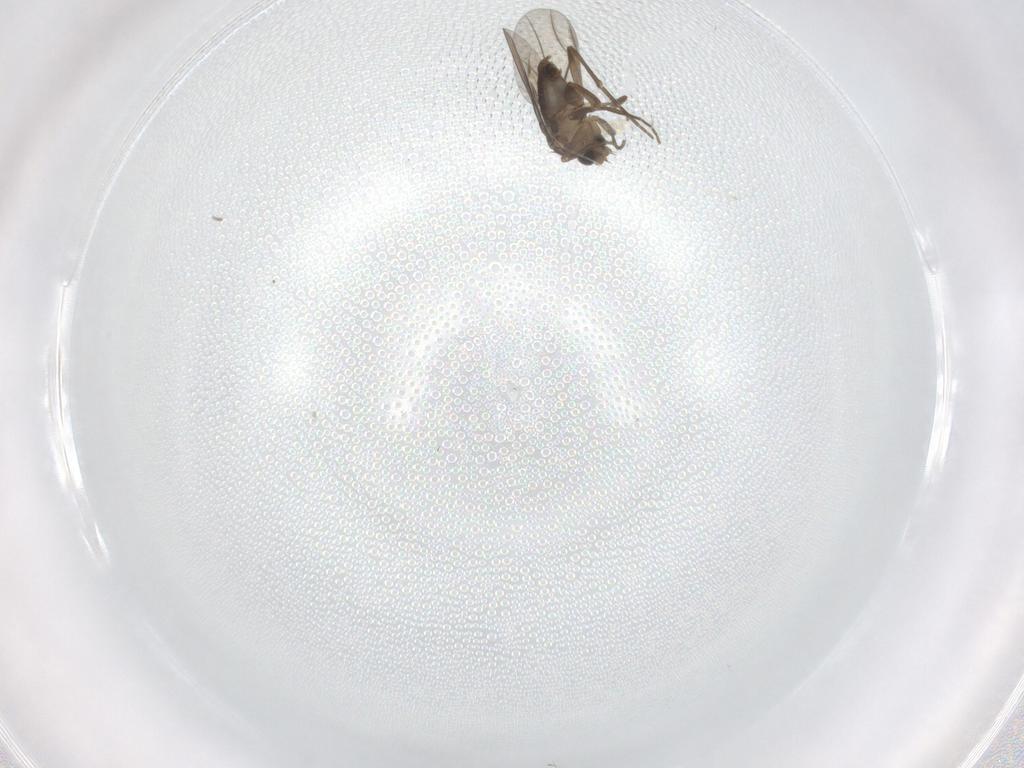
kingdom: Animalia
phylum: Arthropoda
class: Insecta
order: Diptera
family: Phoridae
